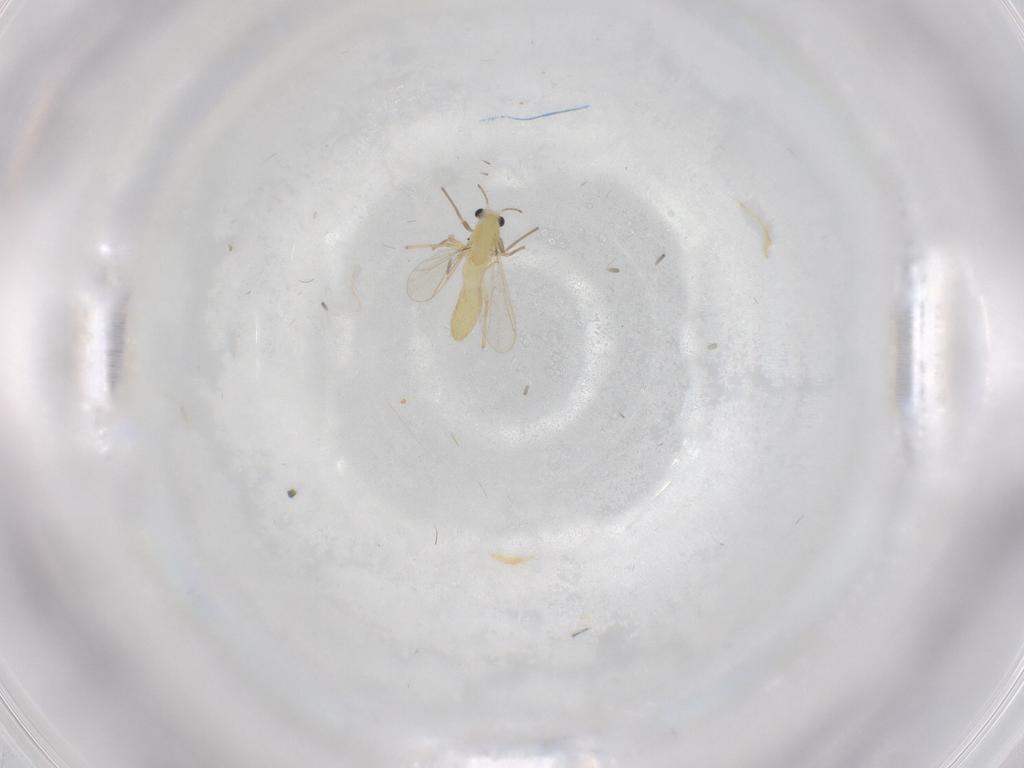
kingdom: Animalia
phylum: Arthropoda
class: Insecta
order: Diptera
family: Chironomidae
